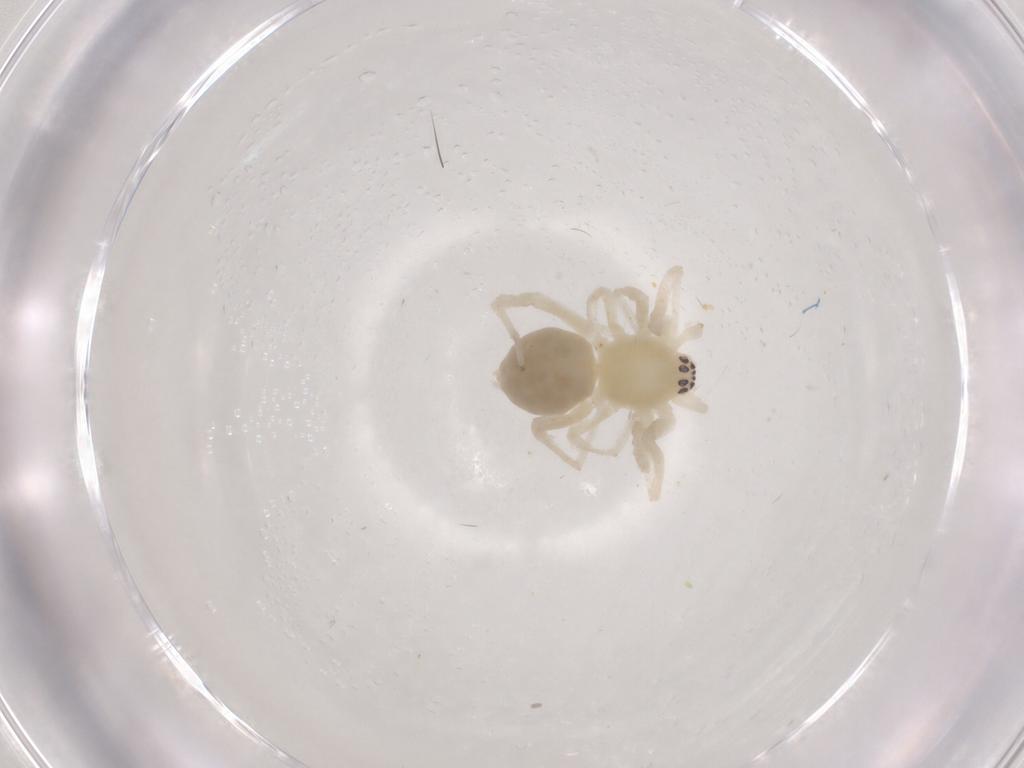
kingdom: Animalia
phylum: Arthropoda
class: Arachnida
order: Araneae
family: Anyphaenidae
